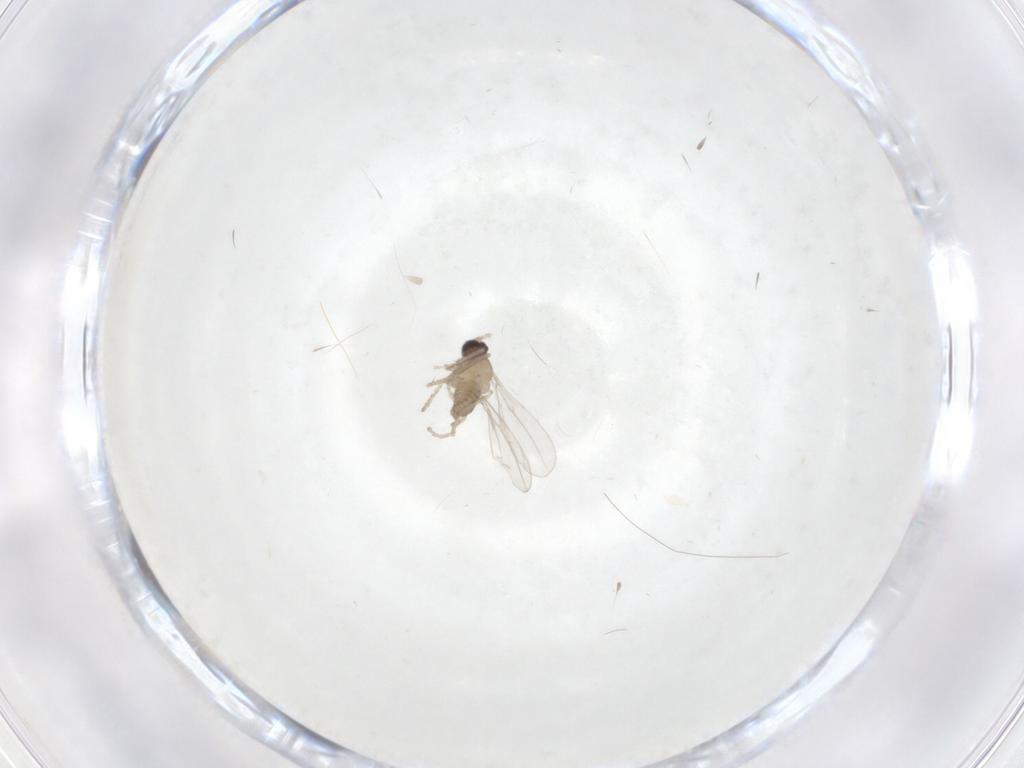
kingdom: Animalia
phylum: Arthropoda
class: Insecta
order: Diptera
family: Cecidomyiidae
